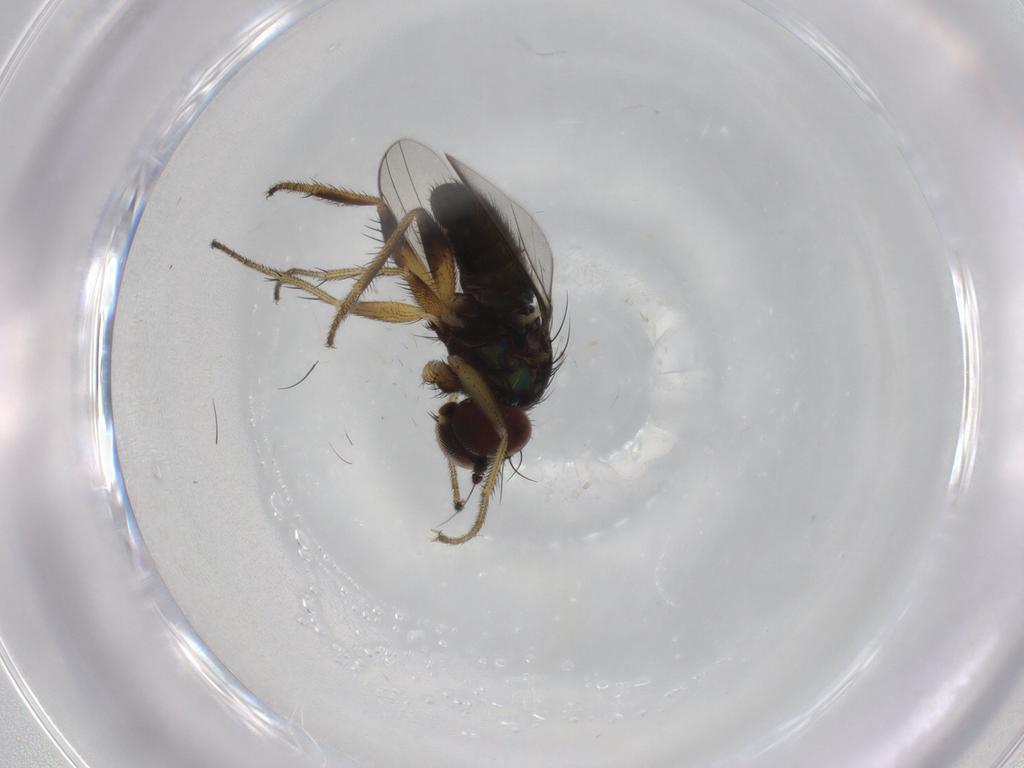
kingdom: Animalia
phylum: Arthropoda
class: Insecta
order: Diptera
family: Dolichopodidae
